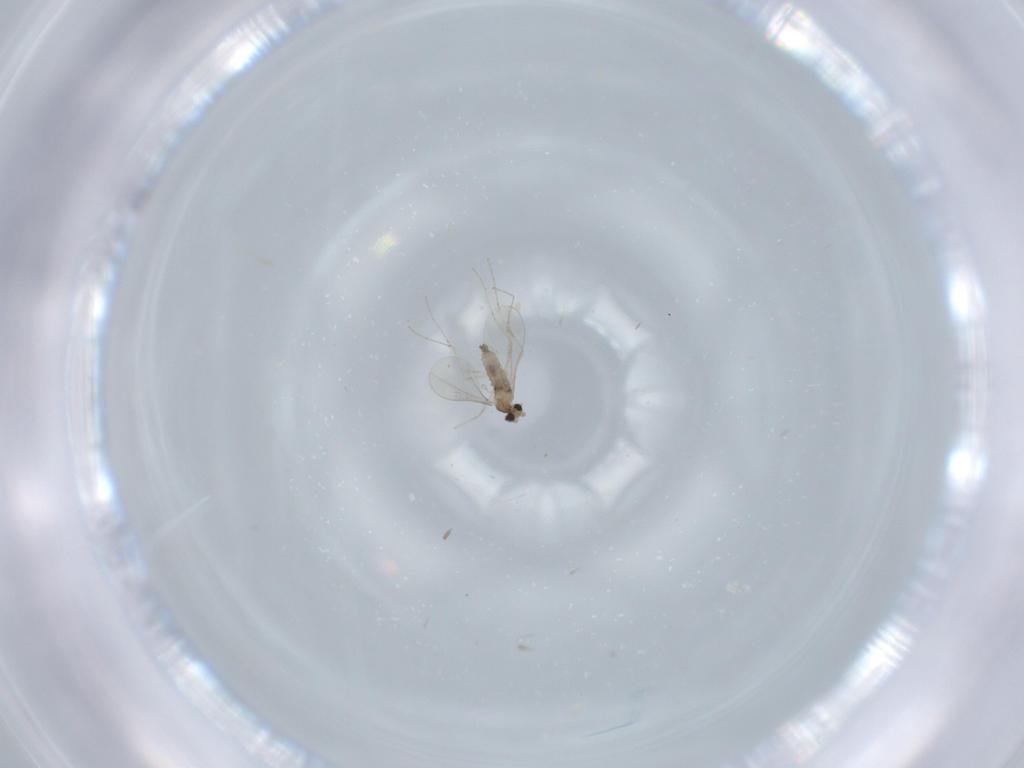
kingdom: Animalia
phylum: Arthropoda
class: Insecta
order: Diptera
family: Cecidomyiidae
